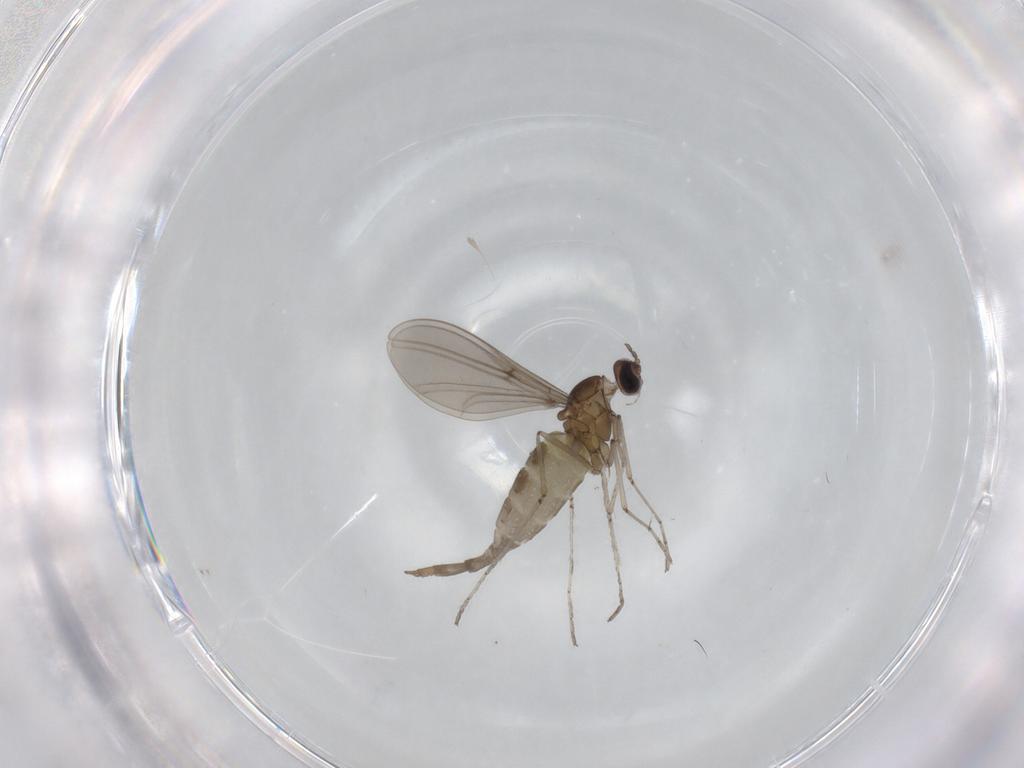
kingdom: Animalia
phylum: Arthropoda
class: Insecta
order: Diptera
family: Cecidomyiidae
